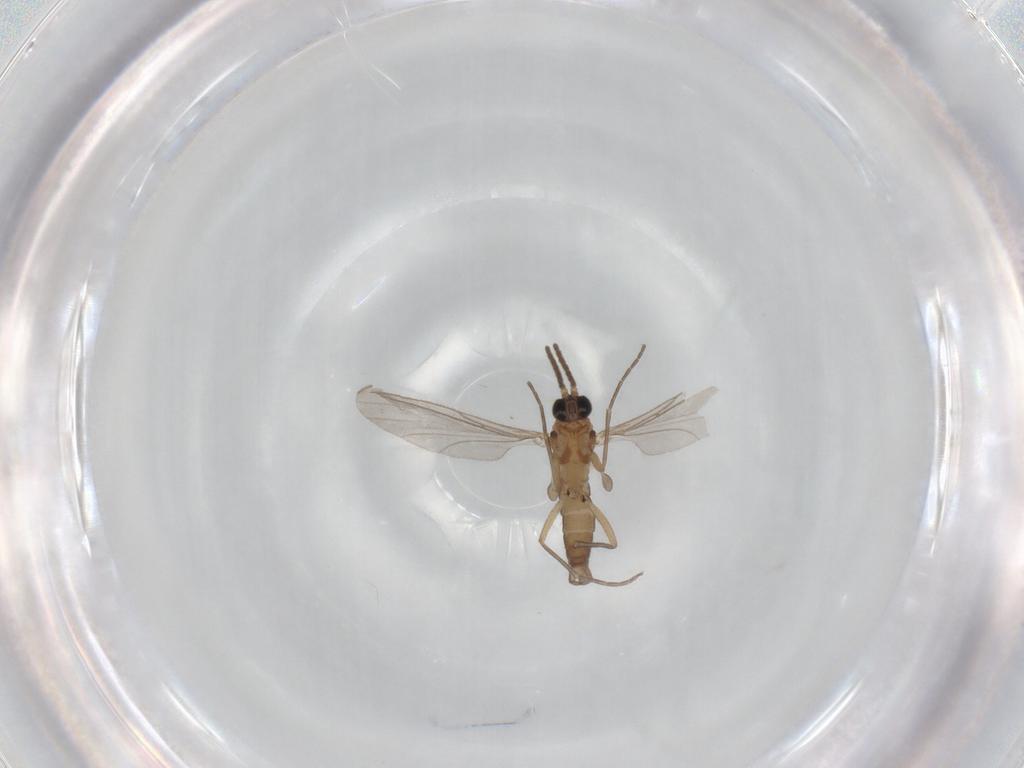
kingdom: Animalia
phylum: Arthropoda
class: Insecta
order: Diptera
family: Sciaridae
